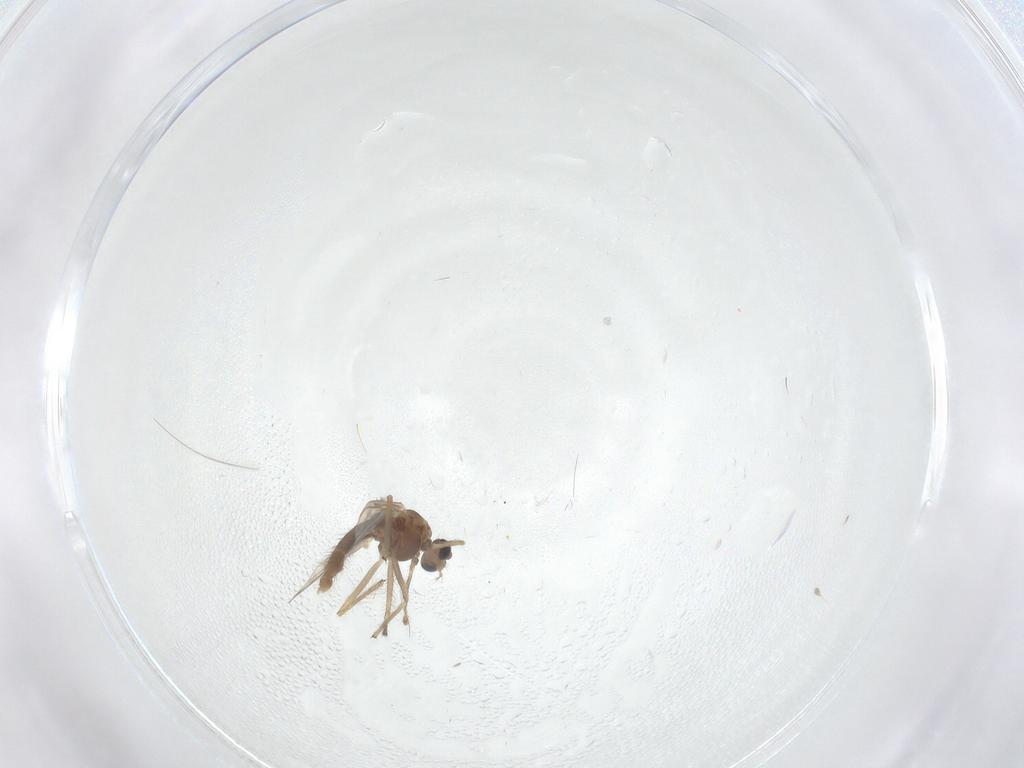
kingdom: Animalia
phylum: Arthropoda
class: Insecta
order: Diptera
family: Chironomidae
